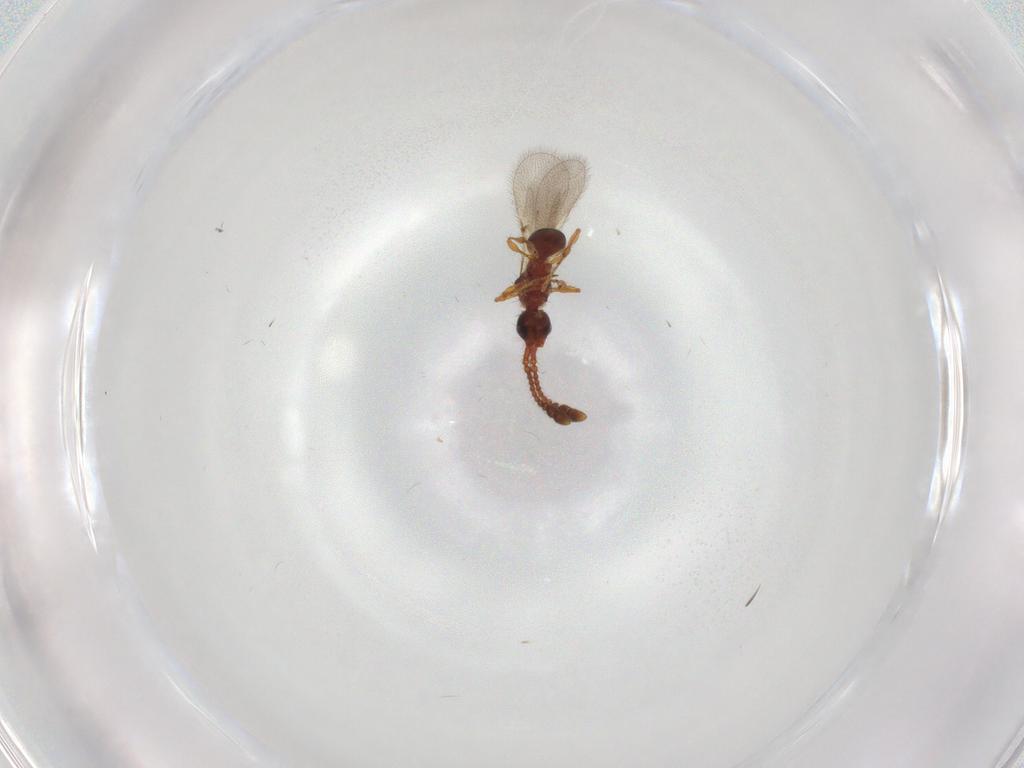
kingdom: Animalia
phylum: Arthropoda
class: Insecta
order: Hymenoptera
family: Diapriidae
